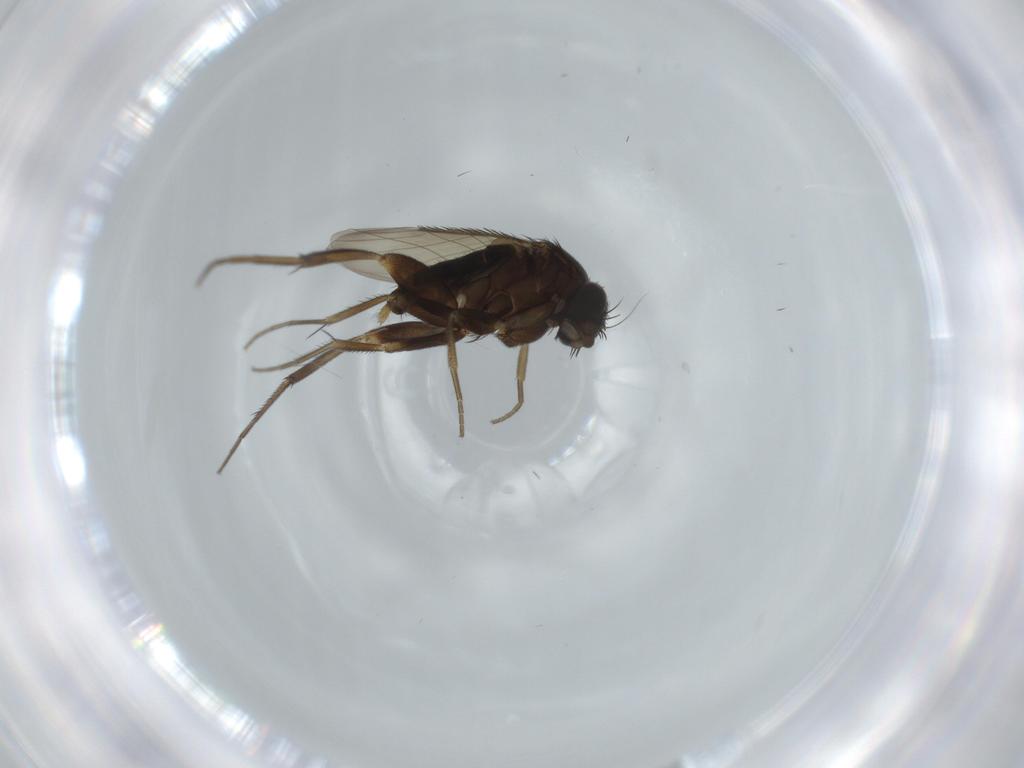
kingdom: Animalia
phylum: Arthropoda
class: Insecta
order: Diptera
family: Phoridae
